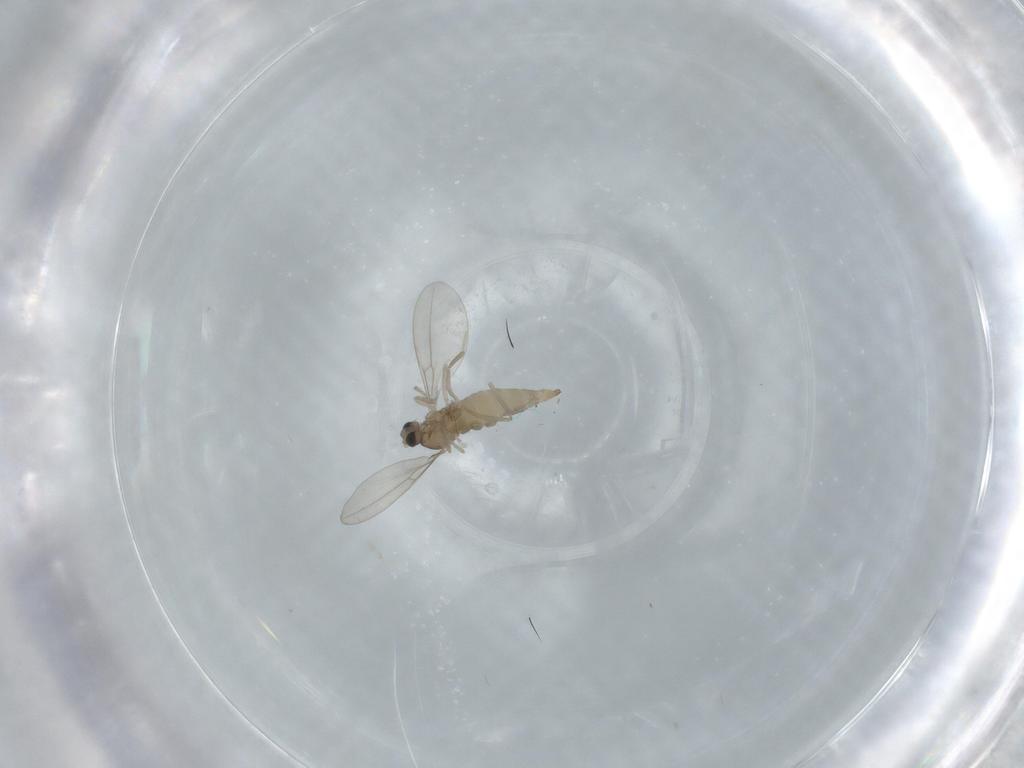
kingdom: Animalia
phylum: Arthropoda
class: Insecta
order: Diptera
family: Cecidomyiidae
